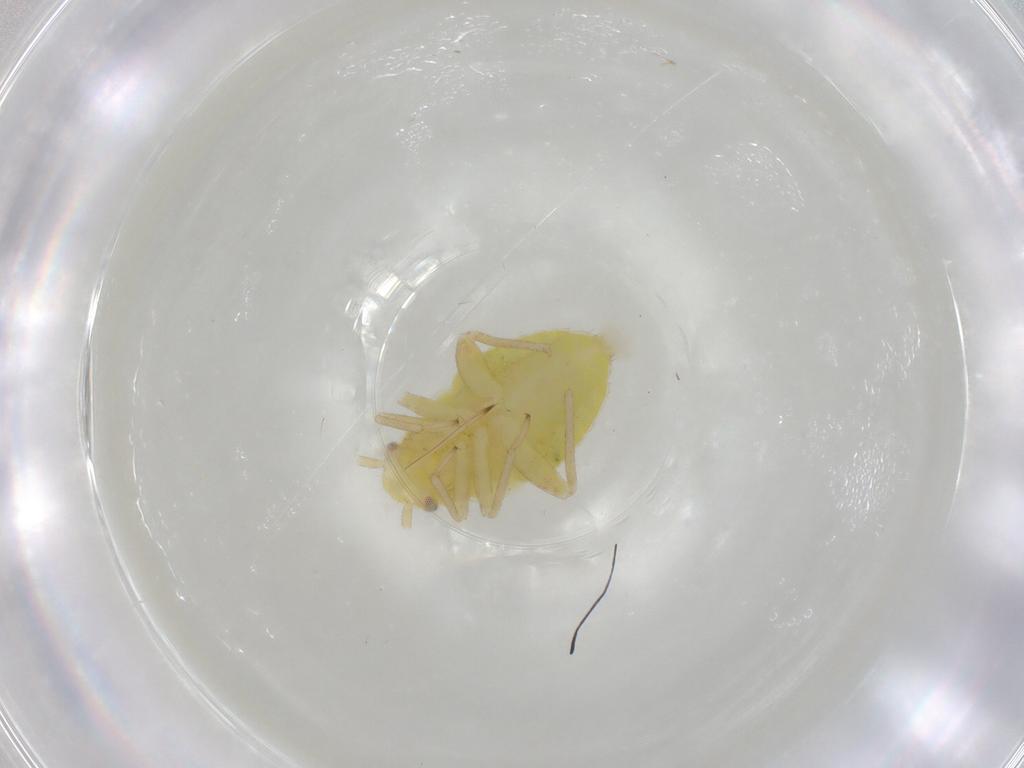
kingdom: Animalia
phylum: Arthropoda
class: Insecta
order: Hemiptera
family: Miridae
